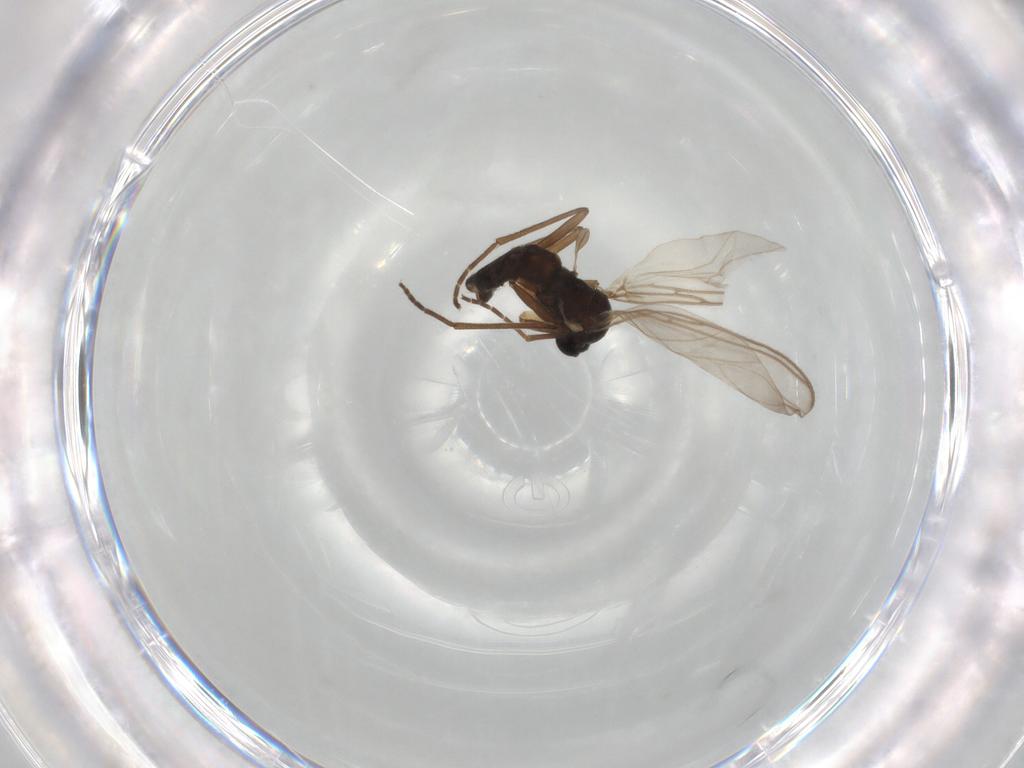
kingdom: Animalia
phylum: Arthropoda
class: Insecta
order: Diptera
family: Sciaridae
